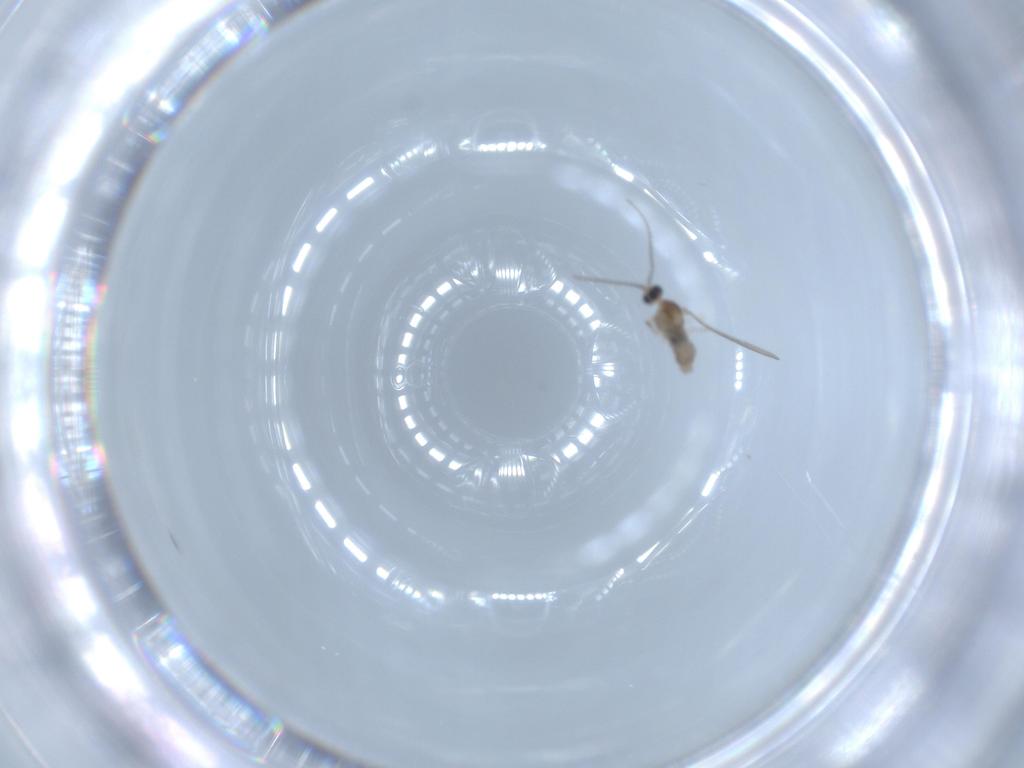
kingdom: Animalia
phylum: Arthropoda
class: Insecta
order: Diptera
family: Cecidomyiidae
